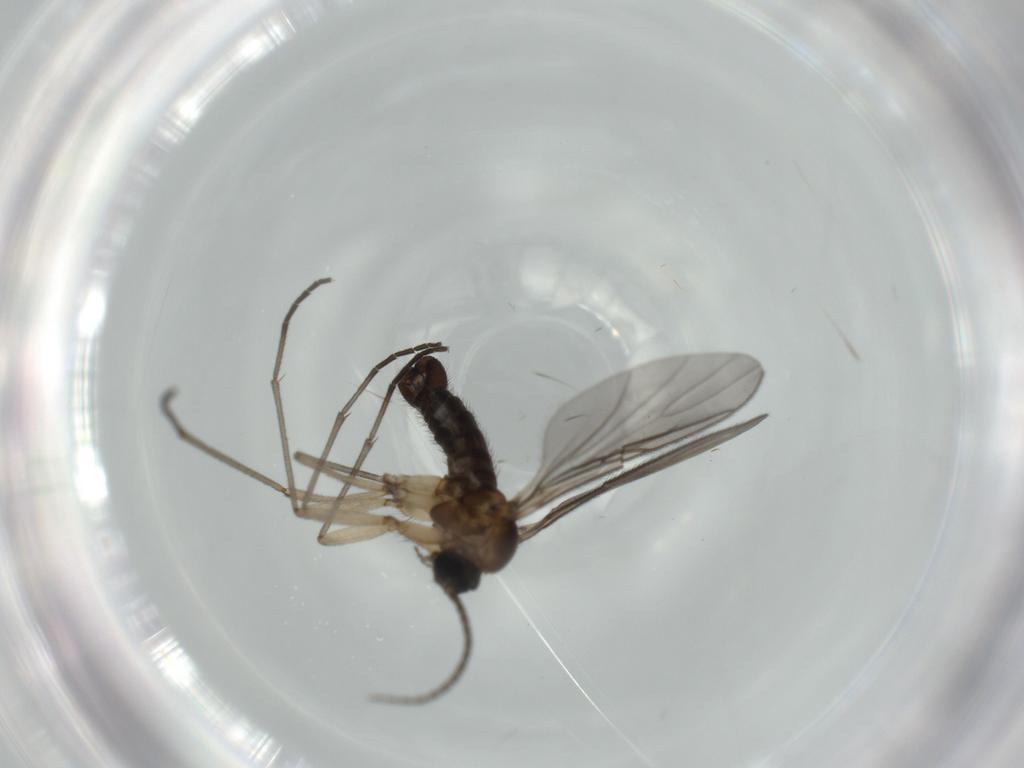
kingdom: Animalia
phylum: Arthropoda
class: Insecta
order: Diptera
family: Sciaridae
